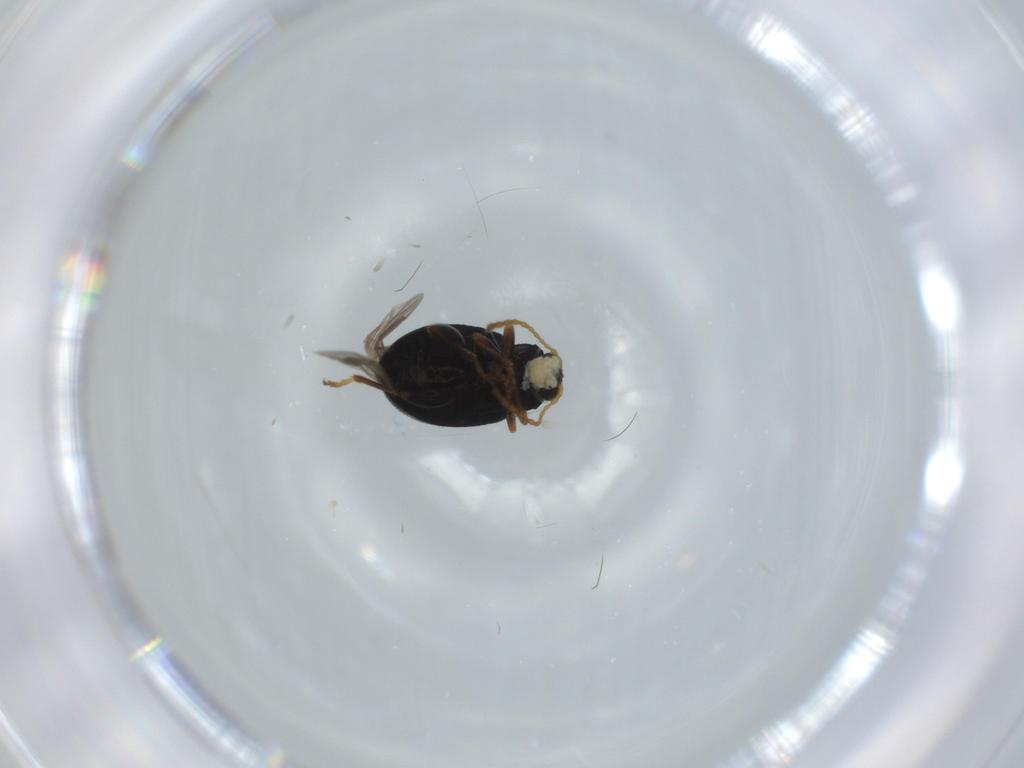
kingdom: Animalia
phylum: Arthropoda
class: Insecta
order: Coleoptera
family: Chrysomelidae
